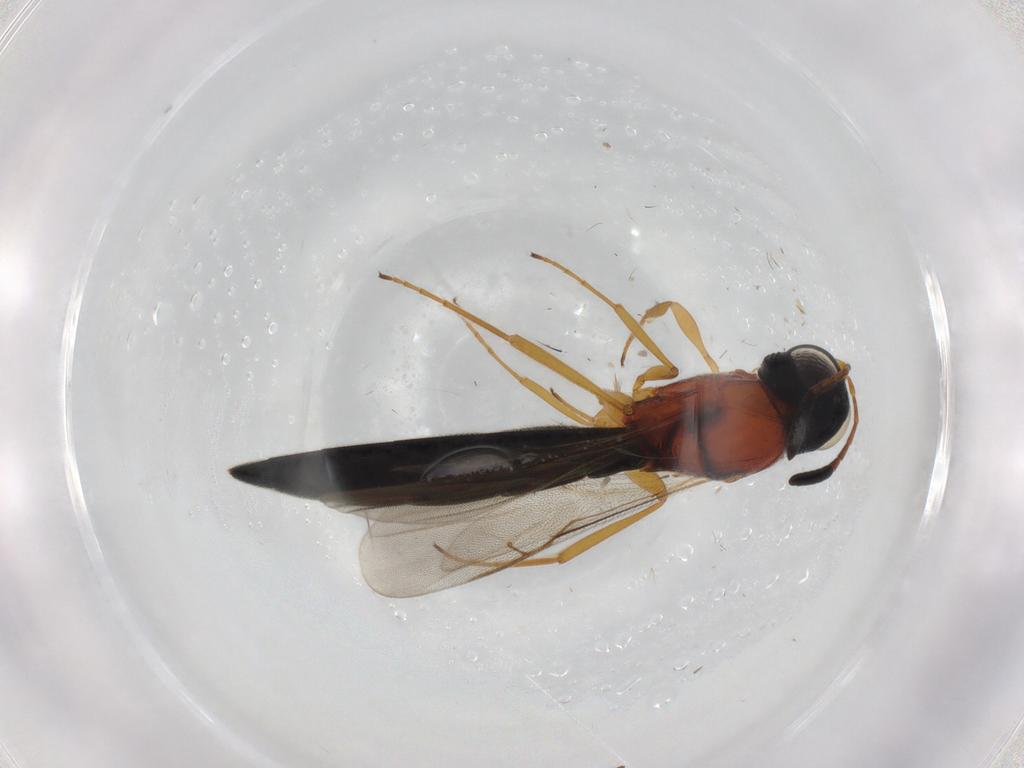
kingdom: Animalia
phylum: Arthropoda
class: Insecta
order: Hymenoptera
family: Scelionidae
